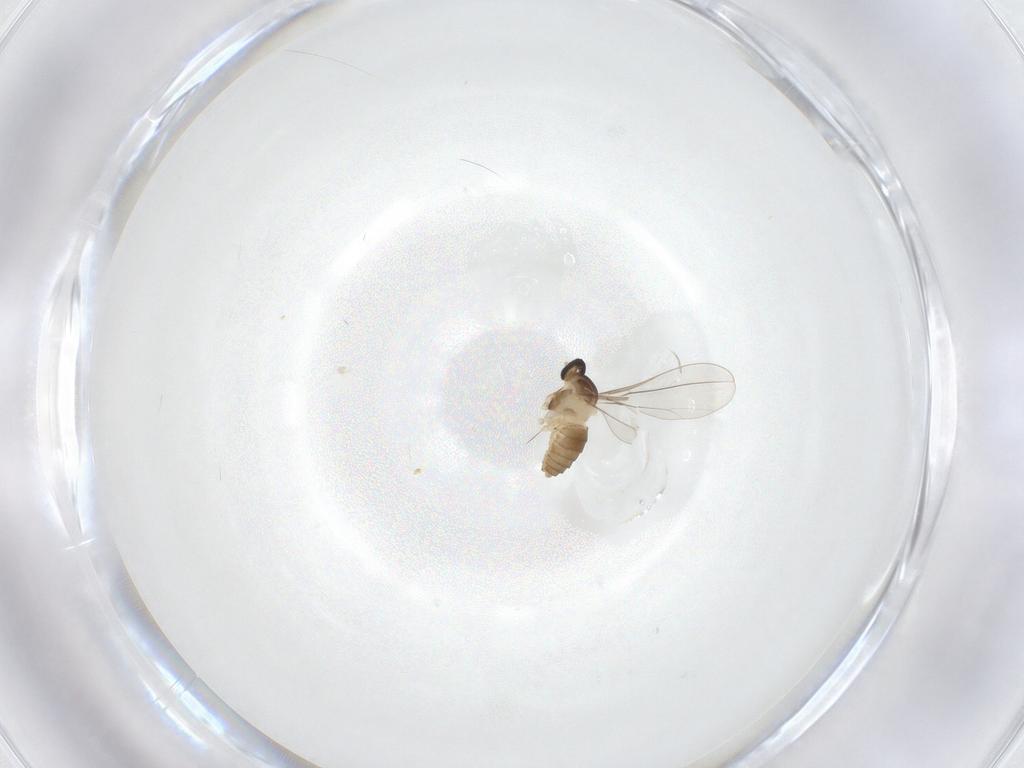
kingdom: Animalia
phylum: Arthropoda
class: Insecta
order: Diptera
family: Cecidomyiidae
